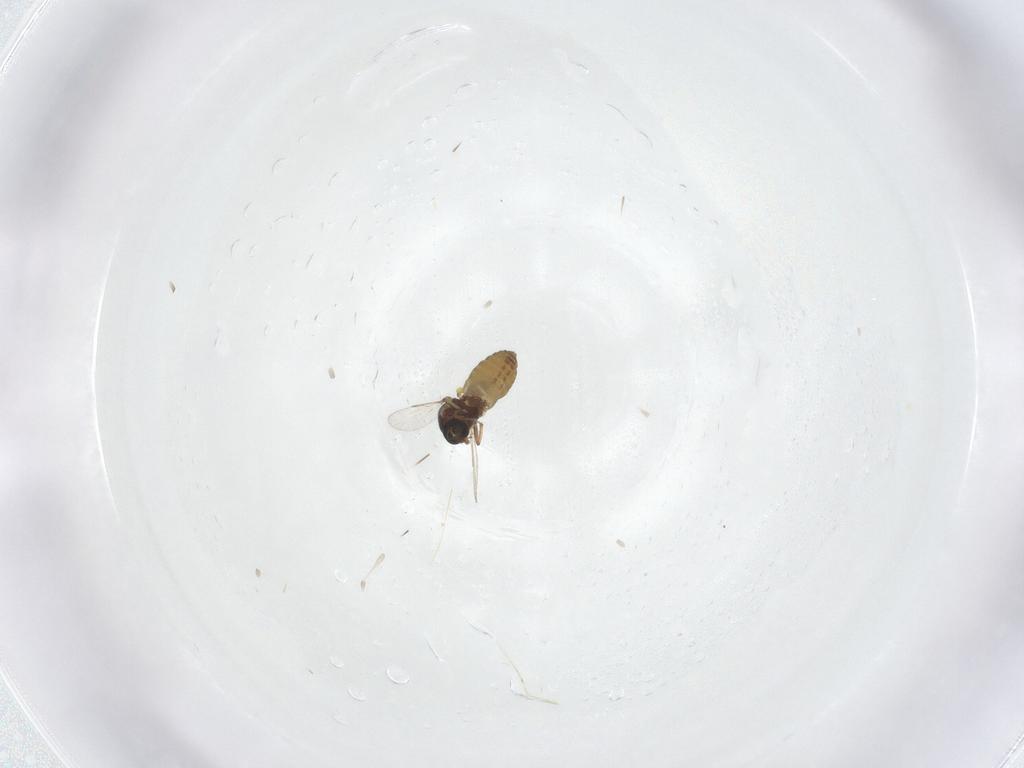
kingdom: Animalia
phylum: Arthropoda
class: Insecta
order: Diptera
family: Ceratopogonidae
